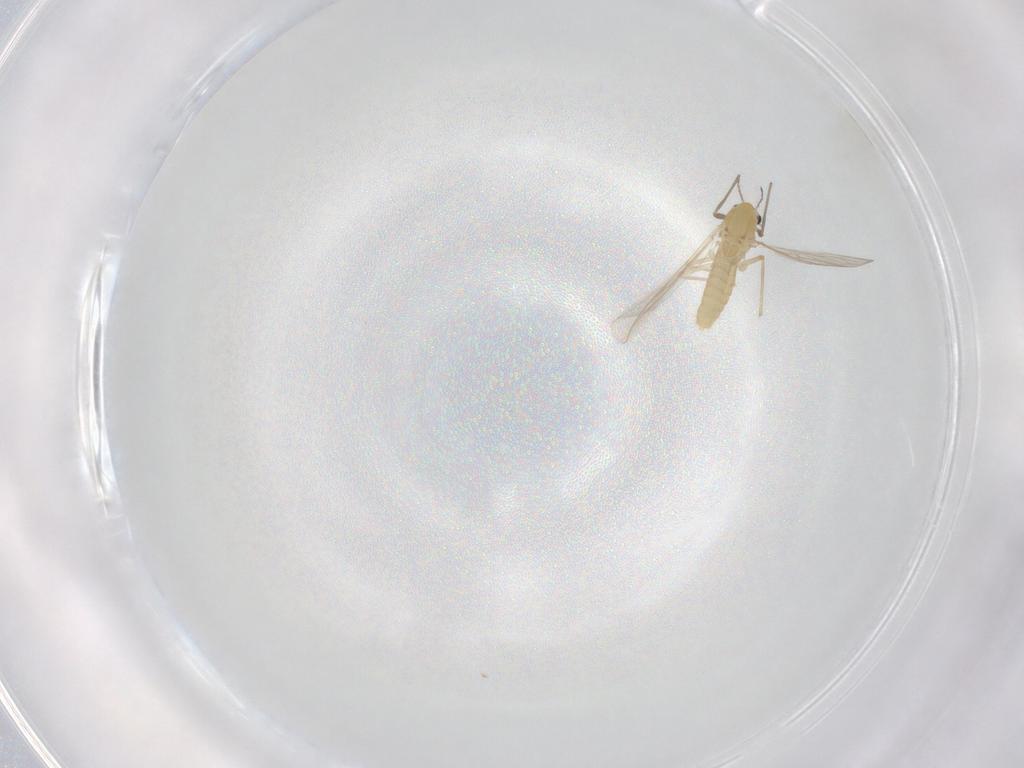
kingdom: Animalia
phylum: Arthropoda
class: Insecta
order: Diptera
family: Chironomidae
